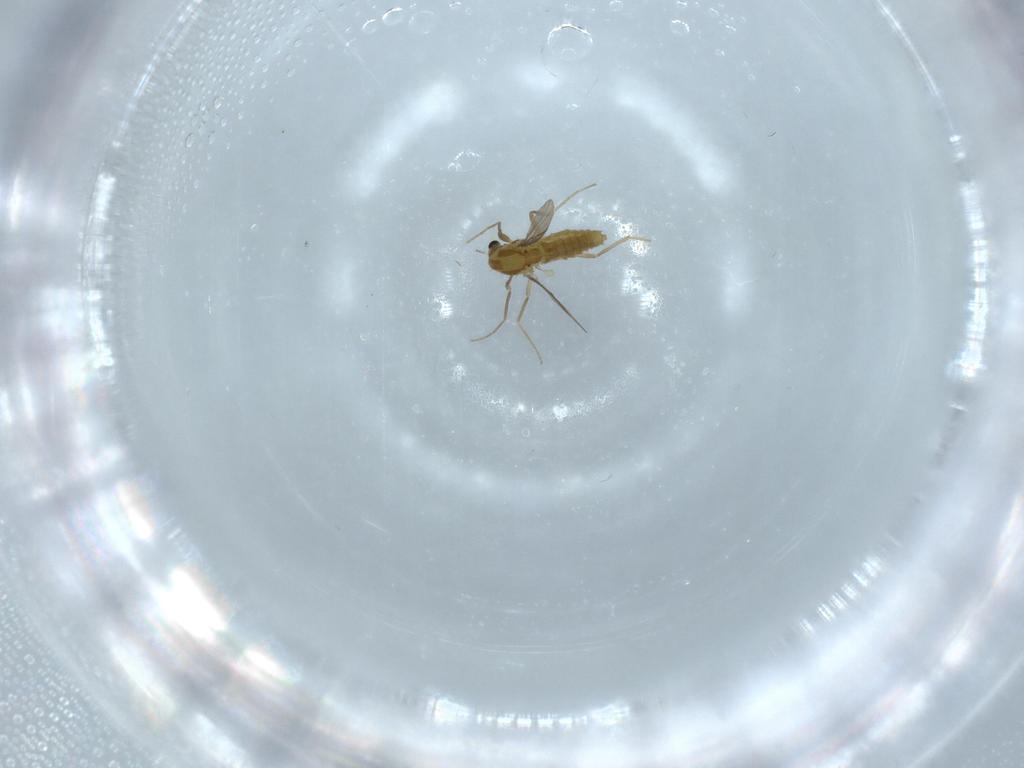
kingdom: Animalia
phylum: Arthropoda
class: Insecta
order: Diptera
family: Chironomidae
